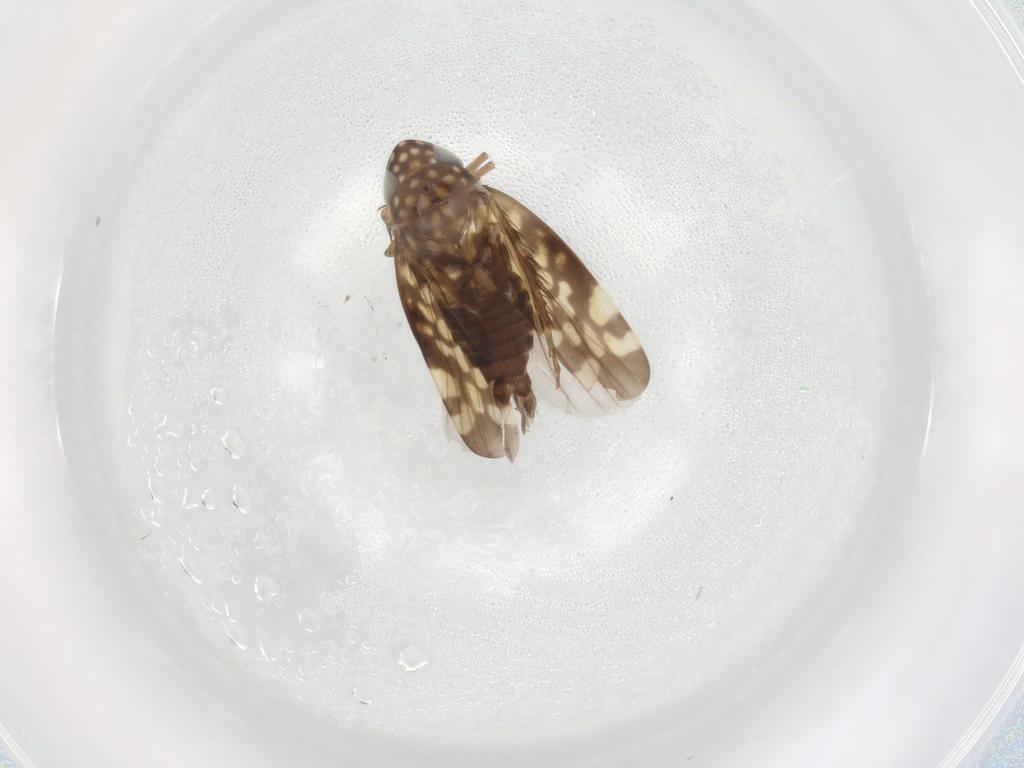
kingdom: Animalia
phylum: Arthropoda
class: Insecta
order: Hemiptera
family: Cicadellidae
